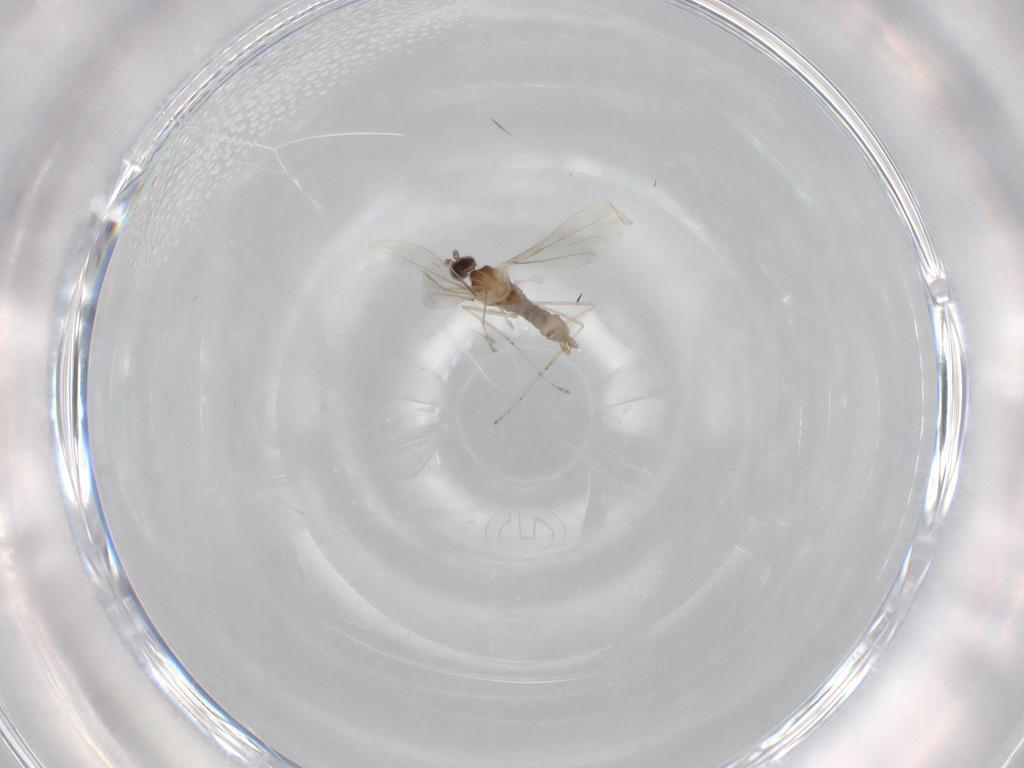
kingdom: Animalia
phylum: Arthropoda
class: Insecta
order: Diptera
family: Cecidomyiidae
